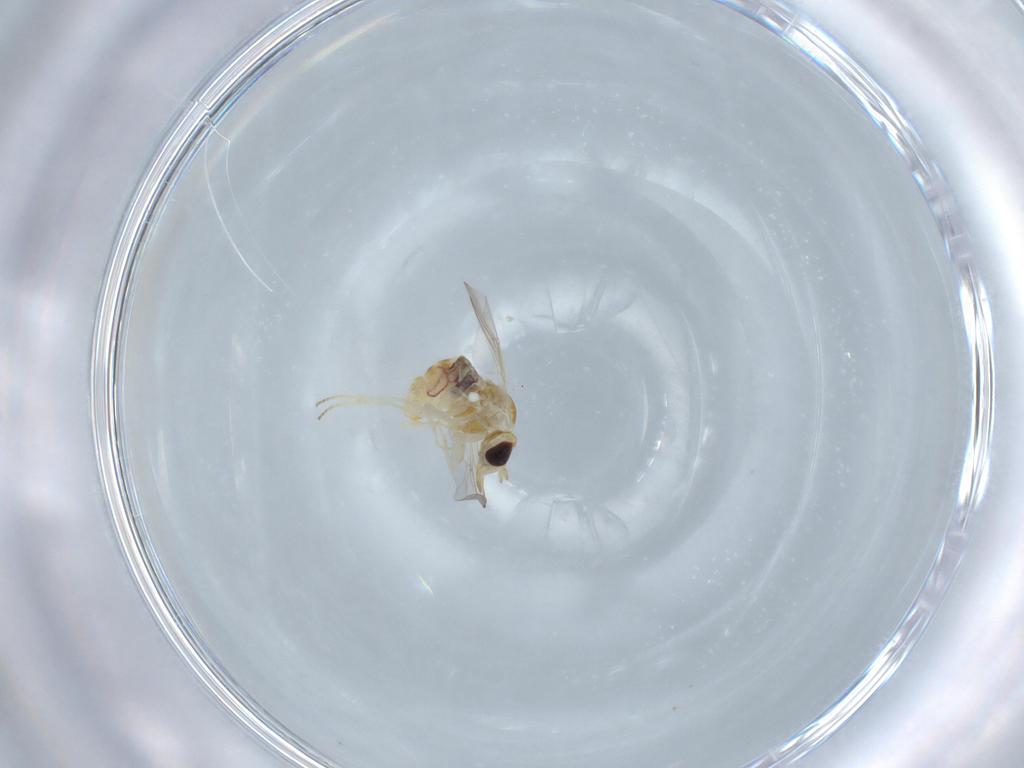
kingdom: Animalia
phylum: Arthropoda
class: Insecta
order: Diptera
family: Psychodidae
